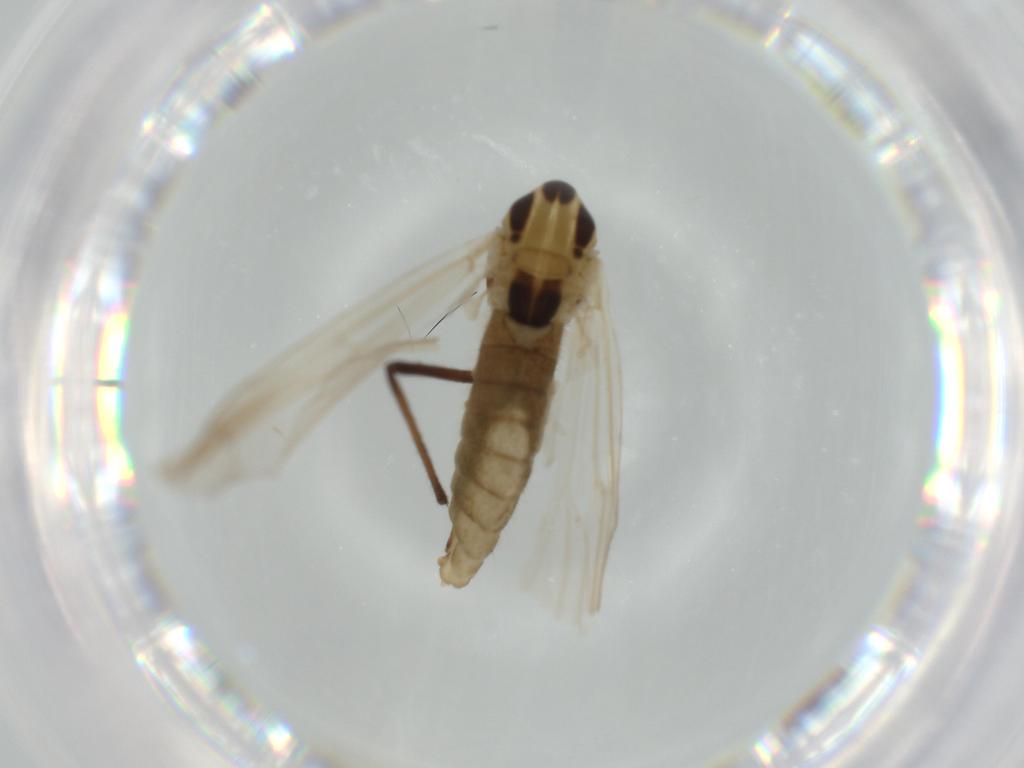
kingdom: Animalia
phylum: Arthropoda
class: Insecta
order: Diptera
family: Chironomidae
